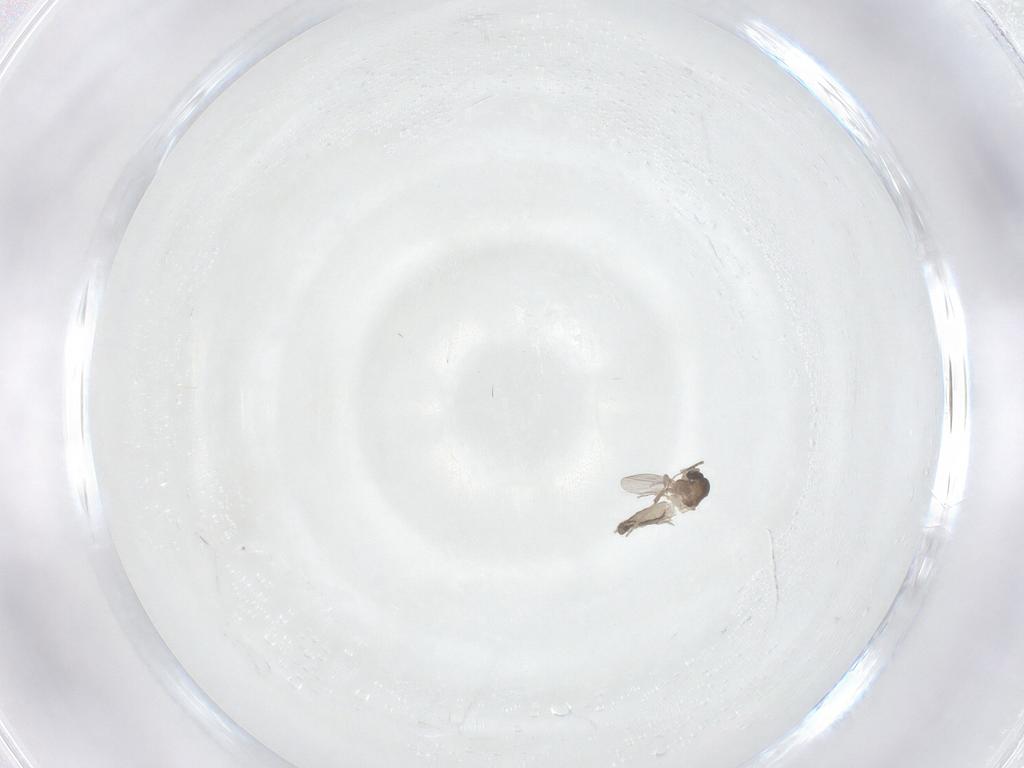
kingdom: Animalia
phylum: Arthropoda
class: Insecta
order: Diptera
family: Ceratopogonidae
